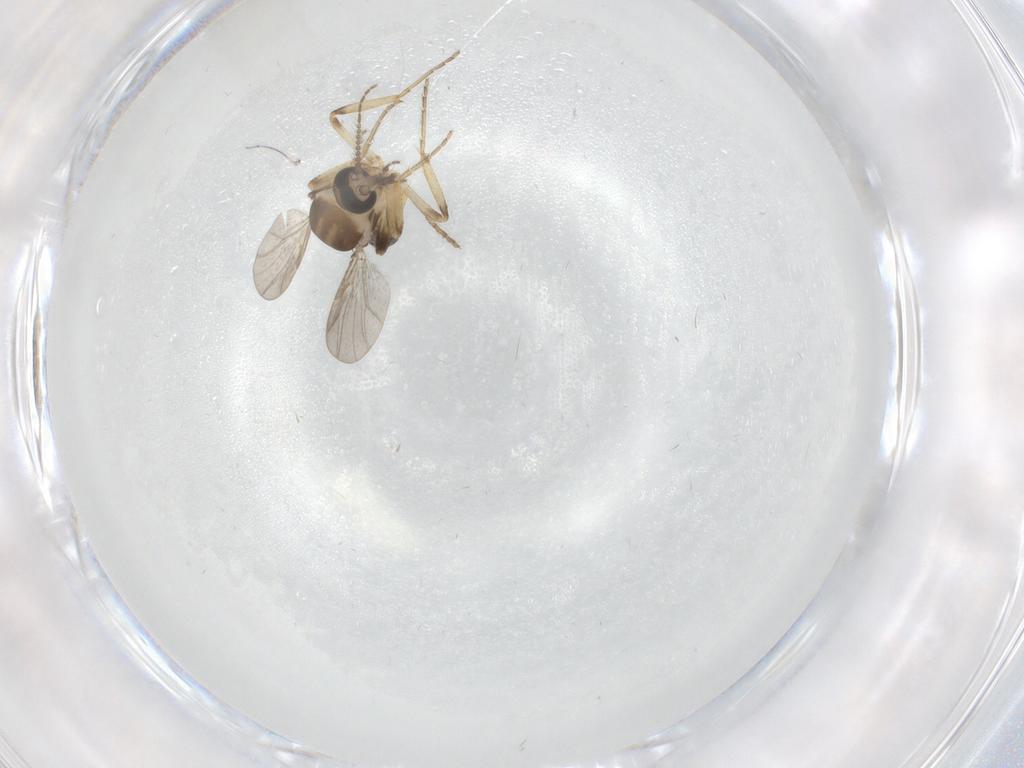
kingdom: Animalia
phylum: Arthropoda
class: Insecta
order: Diptera
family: Ceratopogonidae
